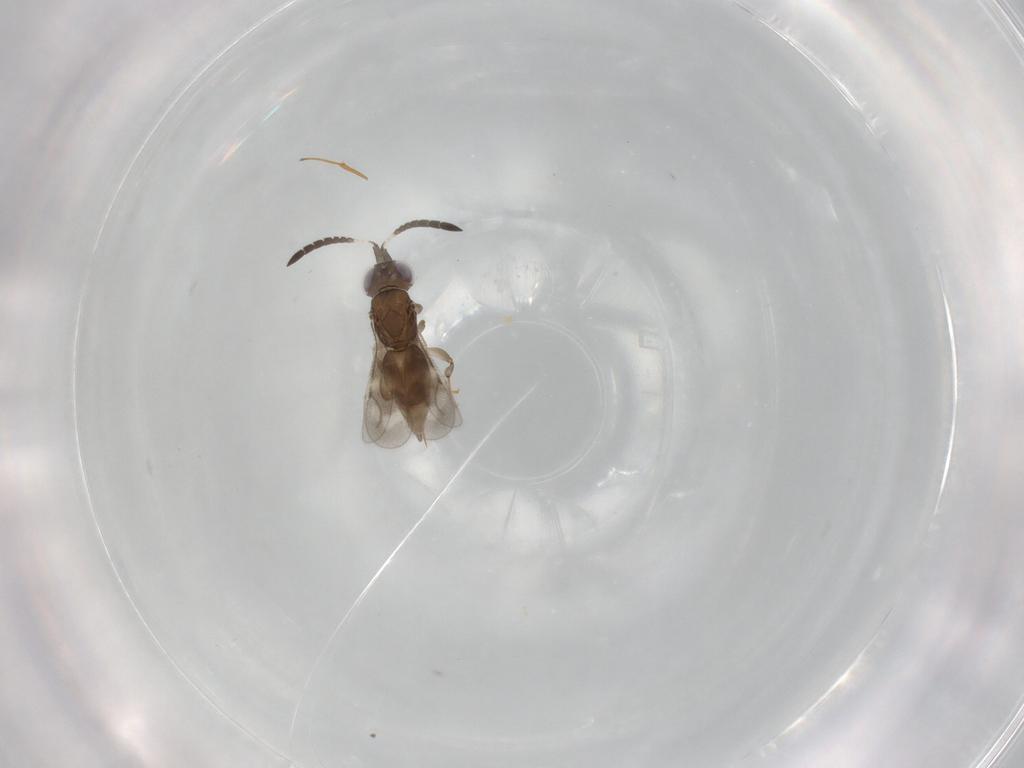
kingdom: Animalia
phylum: Arthropoda
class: Insecta
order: Hymenoptera
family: Scelionidae
